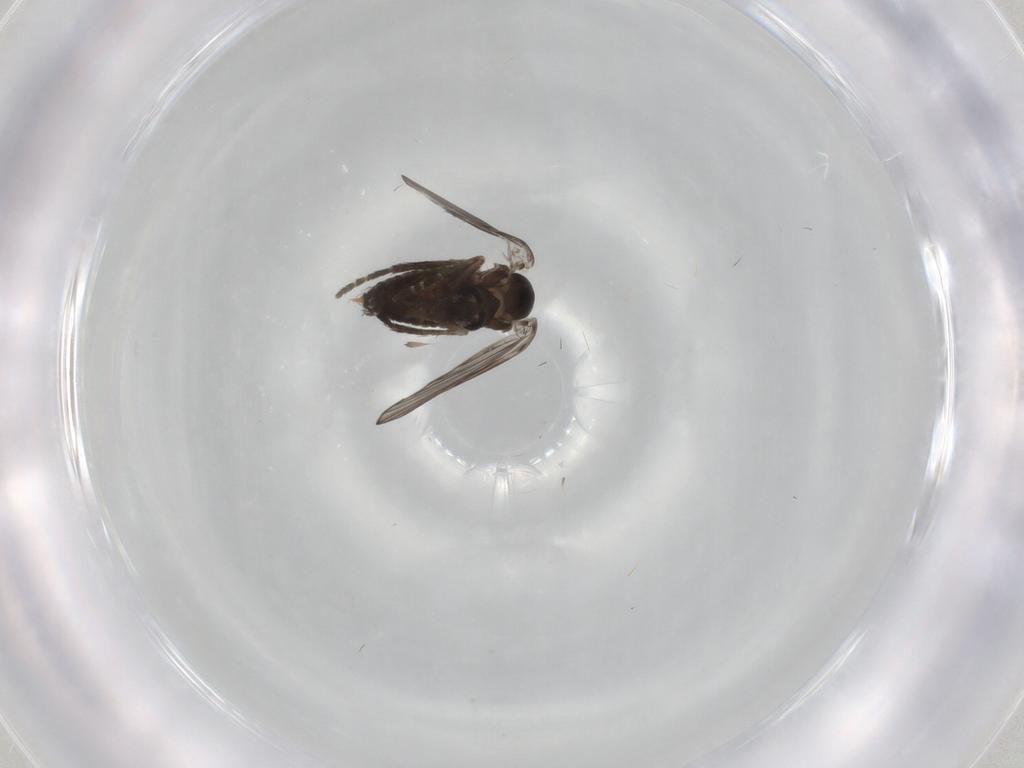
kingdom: Animalia
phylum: Arthropoda
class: Insecta
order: Diptera
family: Psychodidae
